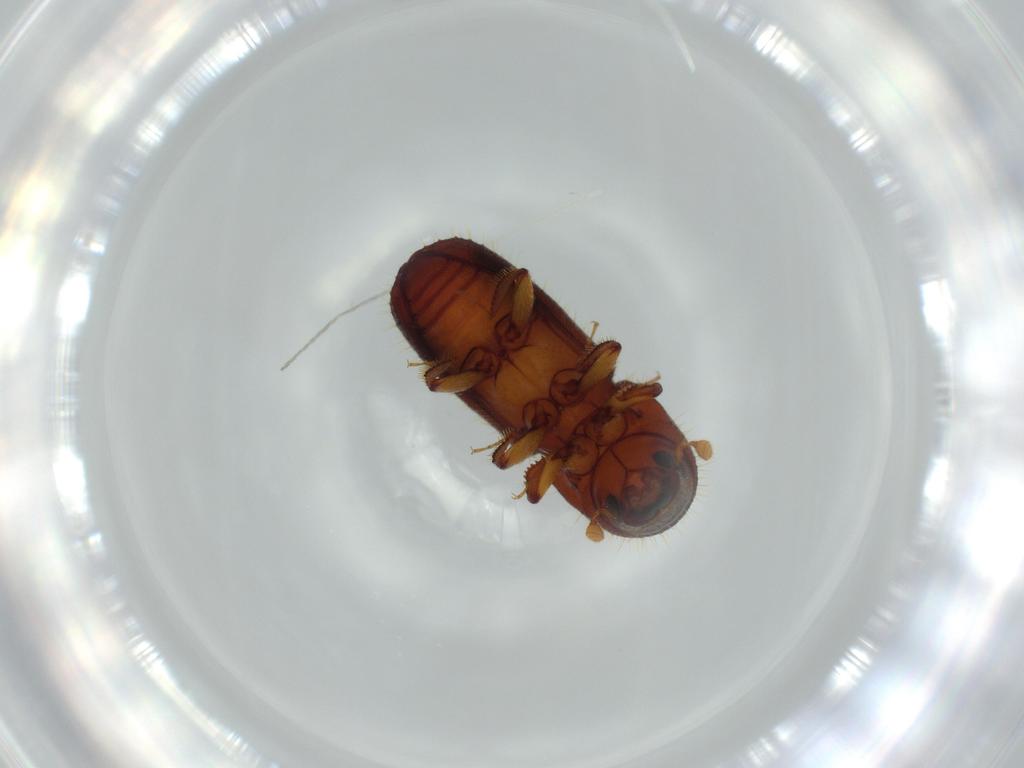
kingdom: Animalia
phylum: Arthropoda
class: Insecta
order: Coleoptera
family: Curculionidae
